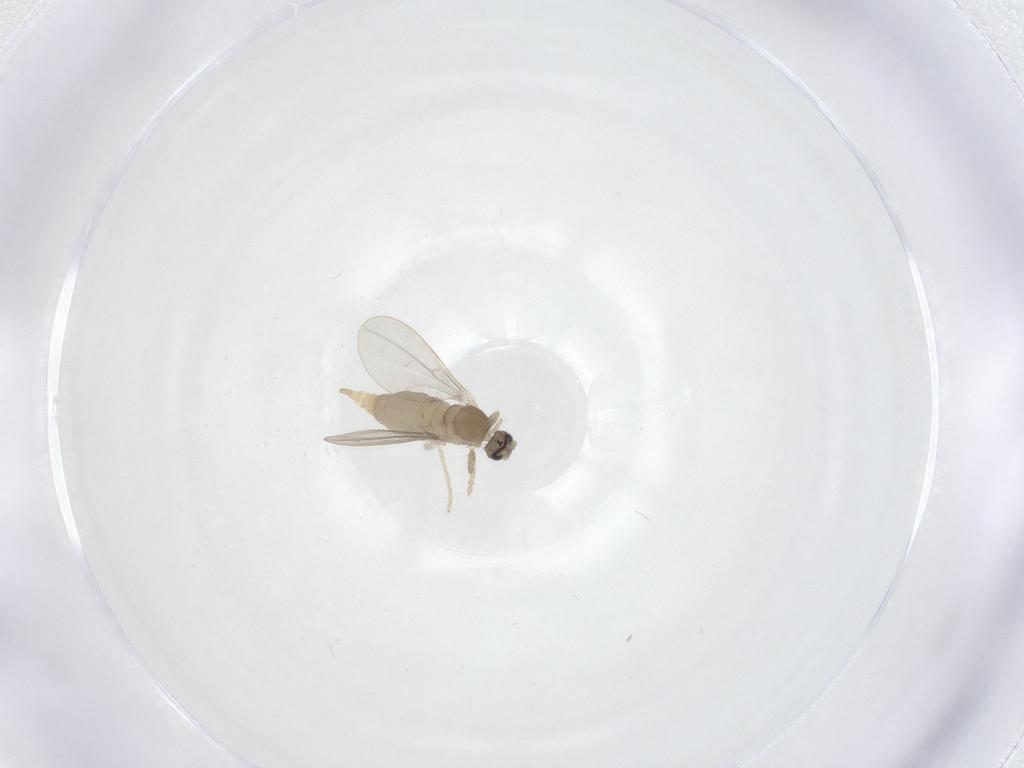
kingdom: Animalia
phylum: Arthropoda
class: Insecta
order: Diptera
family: Cecidomyiidae
